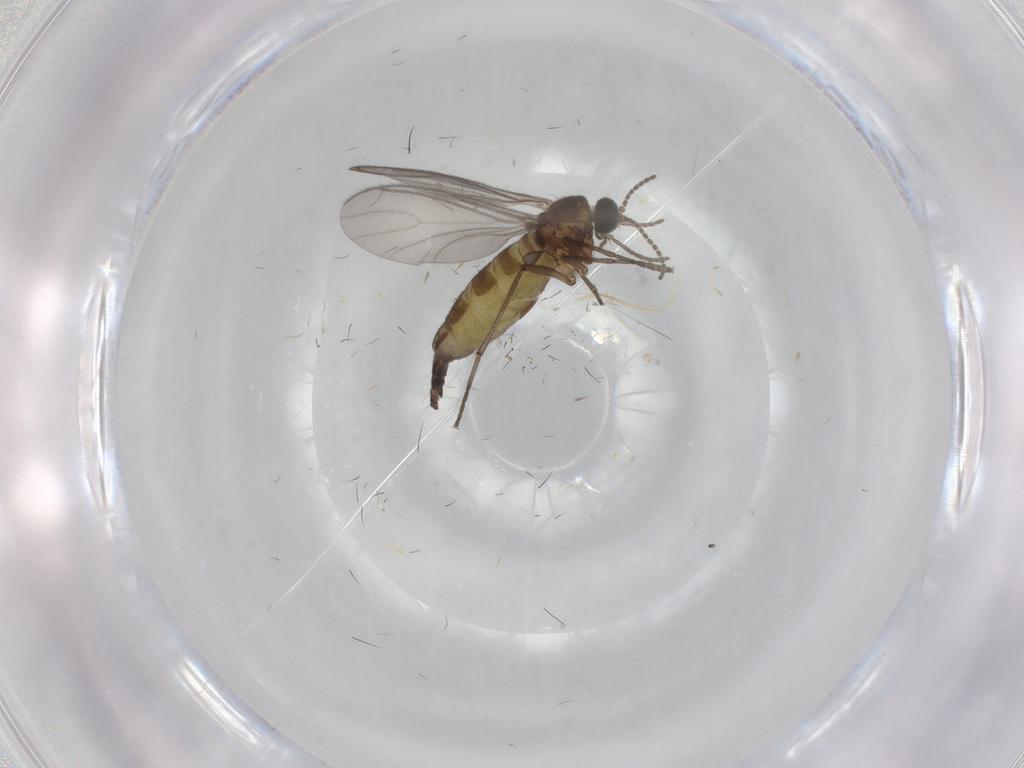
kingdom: Animalia
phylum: Arthropoda
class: Insecta
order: Diptera
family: Sciaridae
